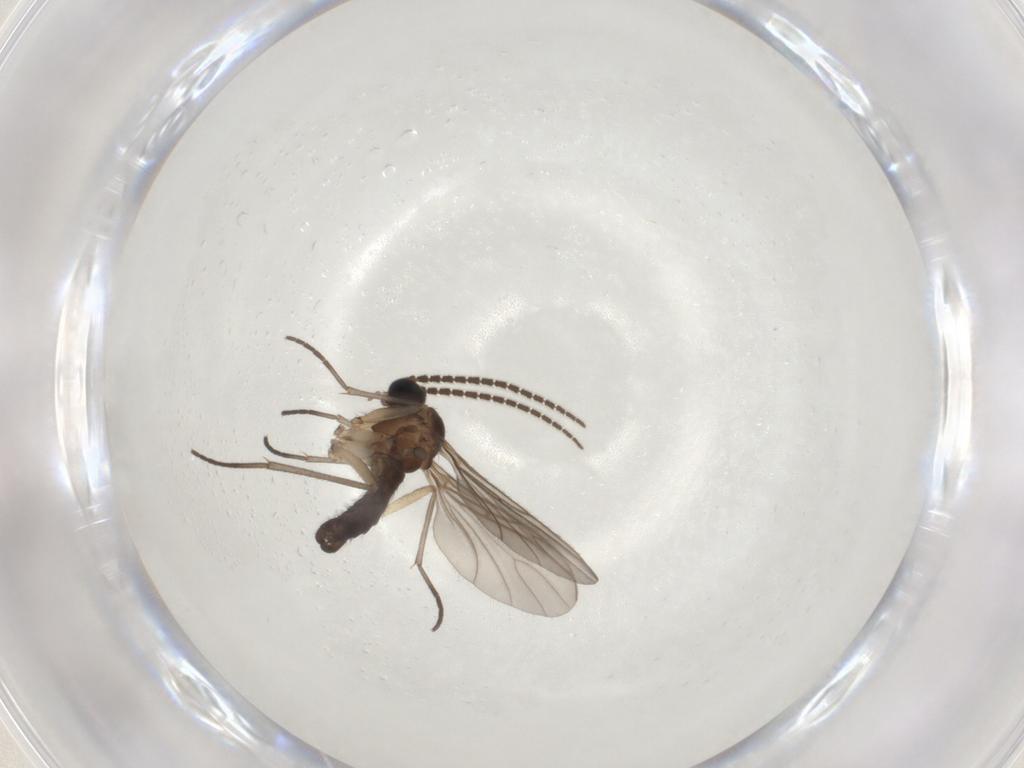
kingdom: Animalia
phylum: Arthropoda
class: Insecta
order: Diptera
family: Sciaridae
